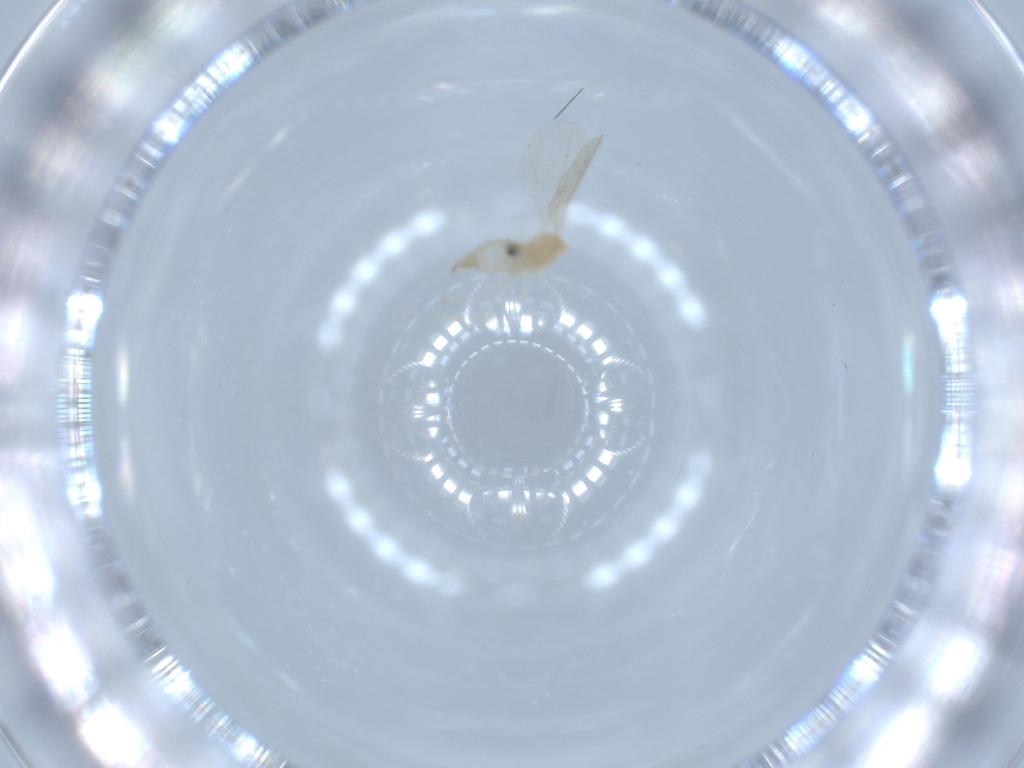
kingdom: Animalia
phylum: Arthropoda
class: Insecta
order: Diptera
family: Cecidomyiidae
